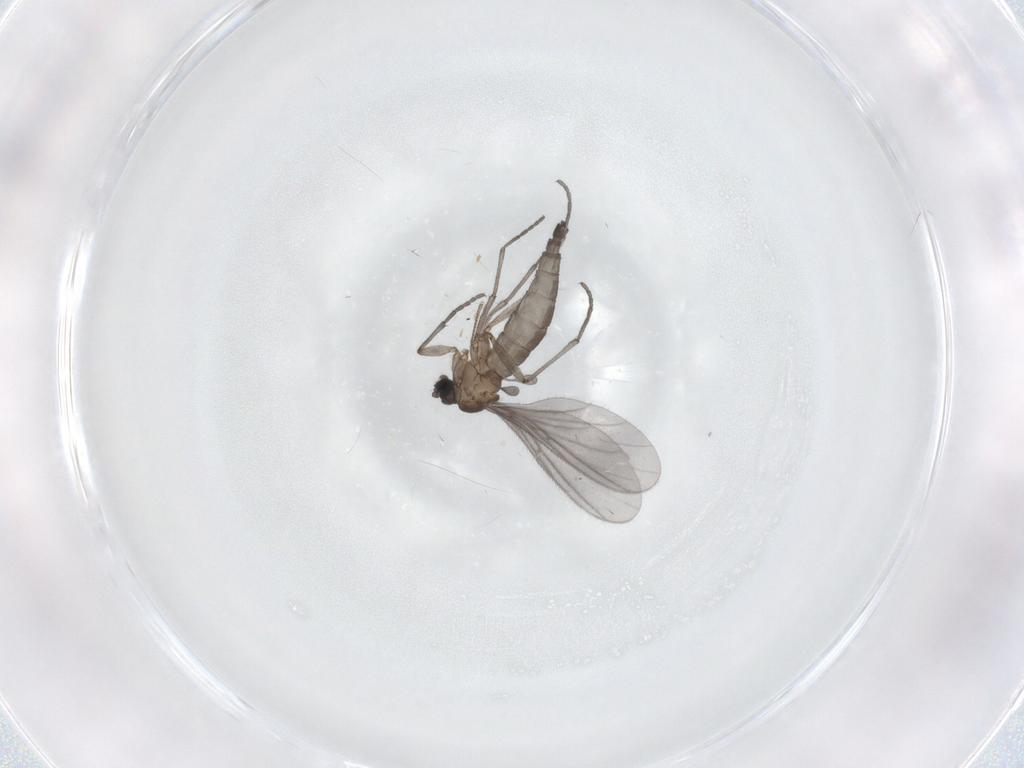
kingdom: Animalia
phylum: Arthropoda
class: Insecta
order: Diptera
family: Sciaridae
